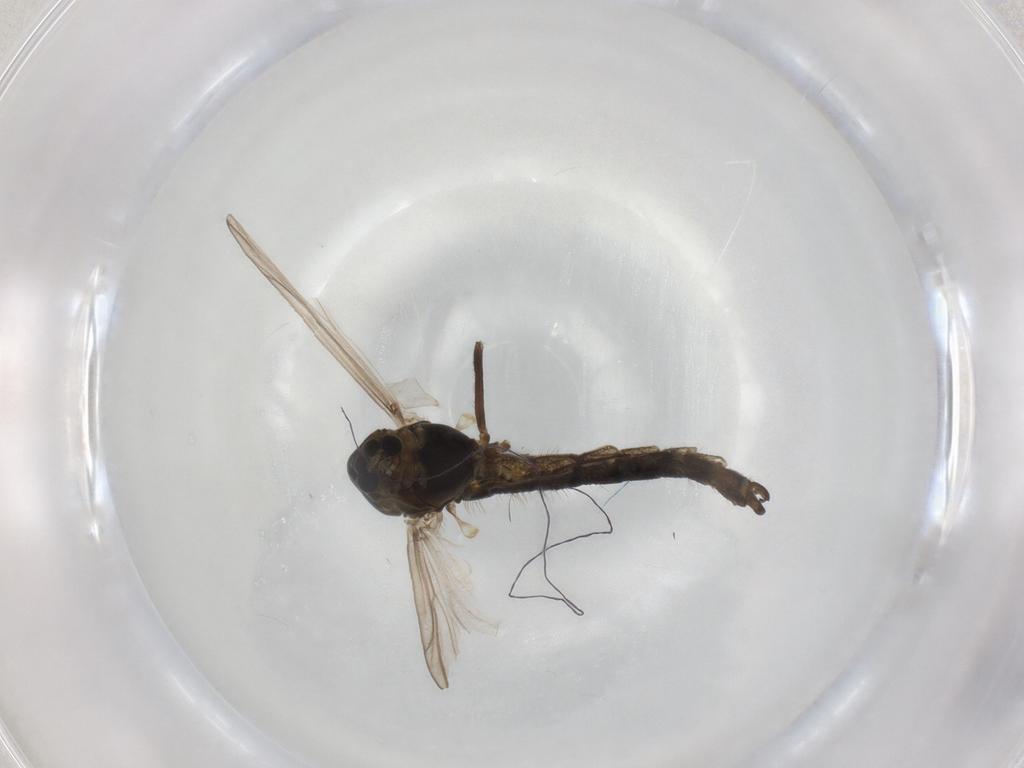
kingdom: Animalia
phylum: Arthropoda
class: Insecta
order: Diptera
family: Chironomidae
